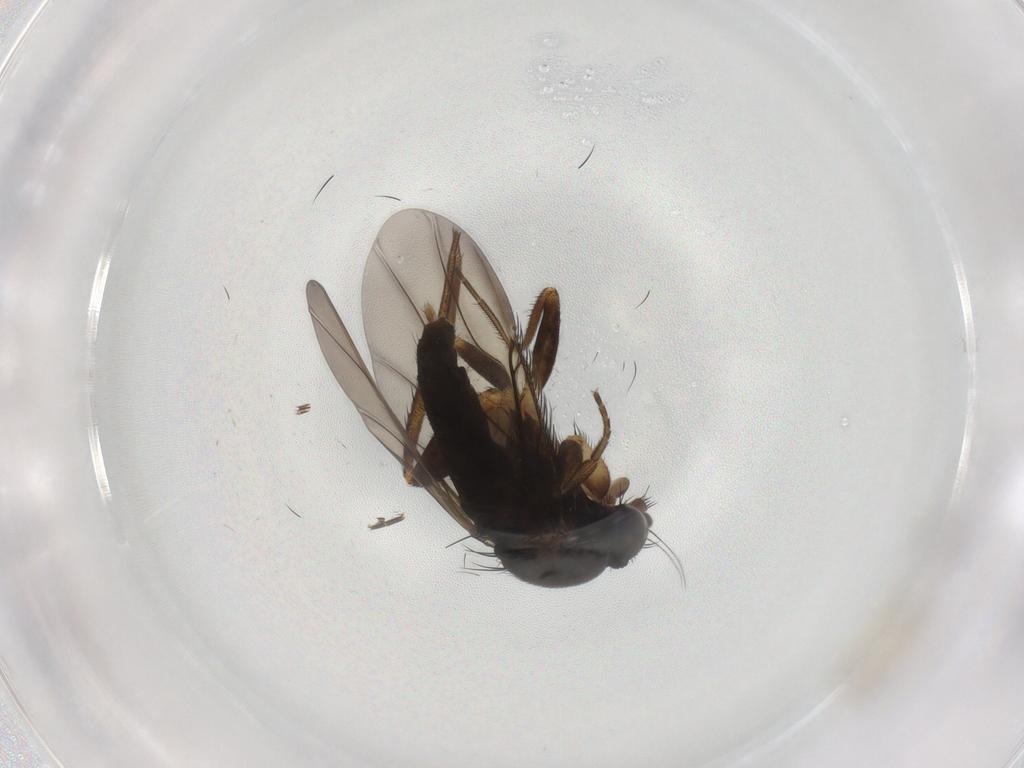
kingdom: Animalia
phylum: Arthropoda
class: Insecta
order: Diptera
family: Phoridae
